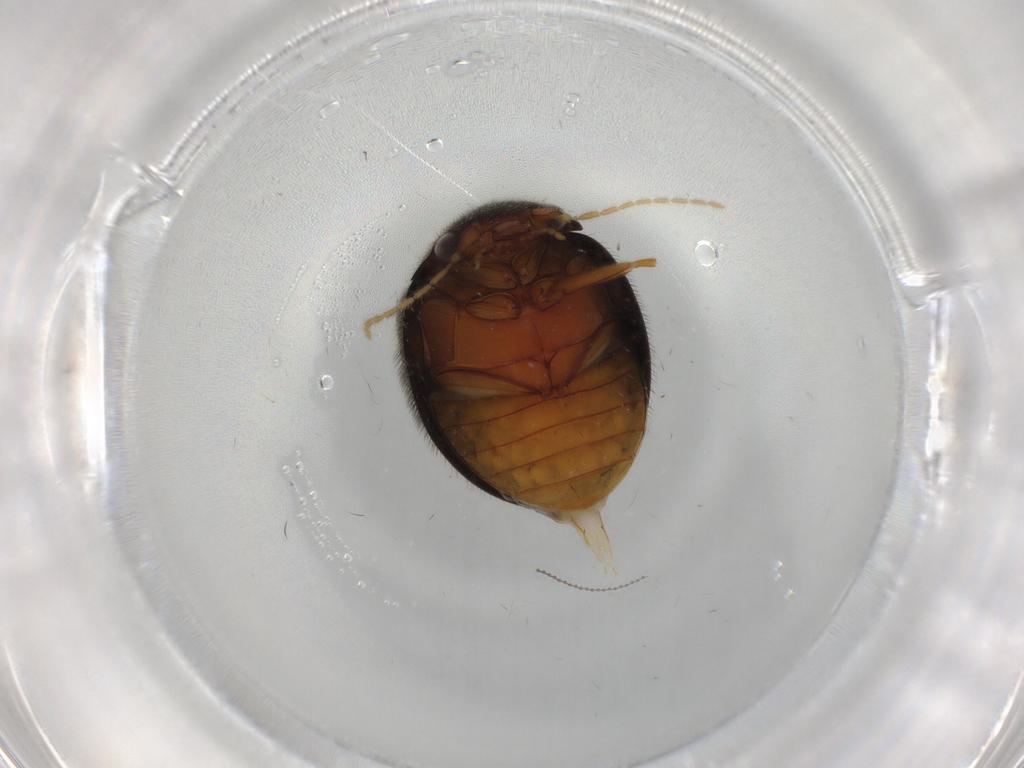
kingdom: Animalia
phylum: Arthropoda
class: Insecta
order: Coleoptera
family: Scirtidae
